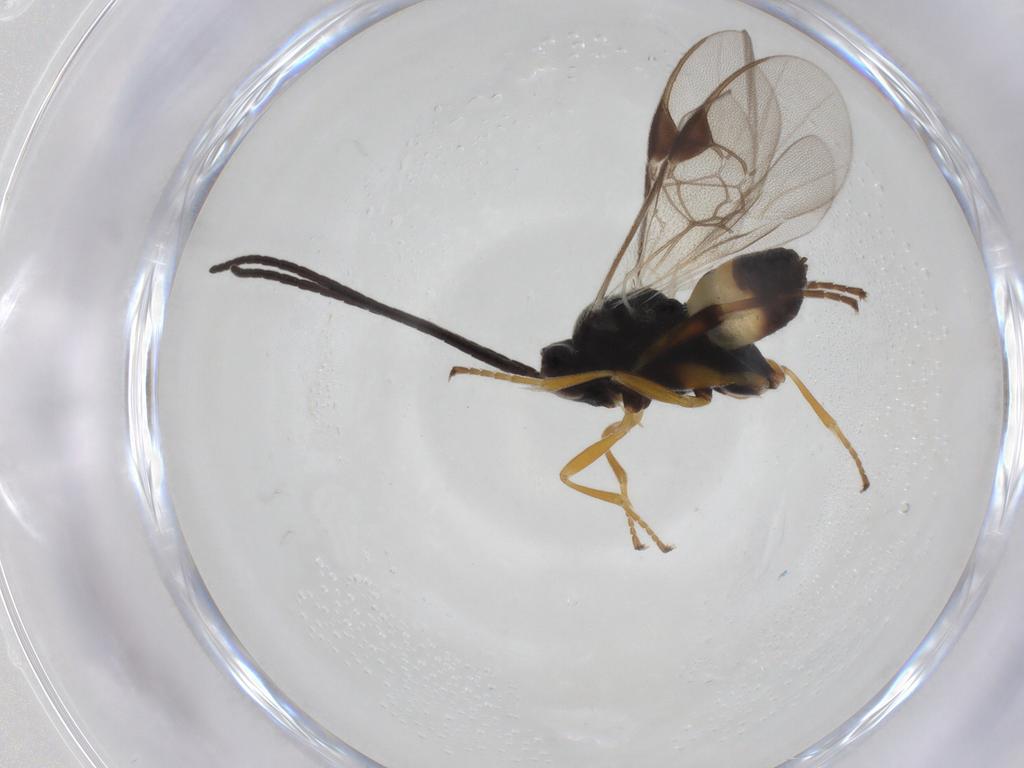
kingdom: Animalia
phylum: Arthropoda
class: Insecta
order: Hymenoptera
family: Braconidae
